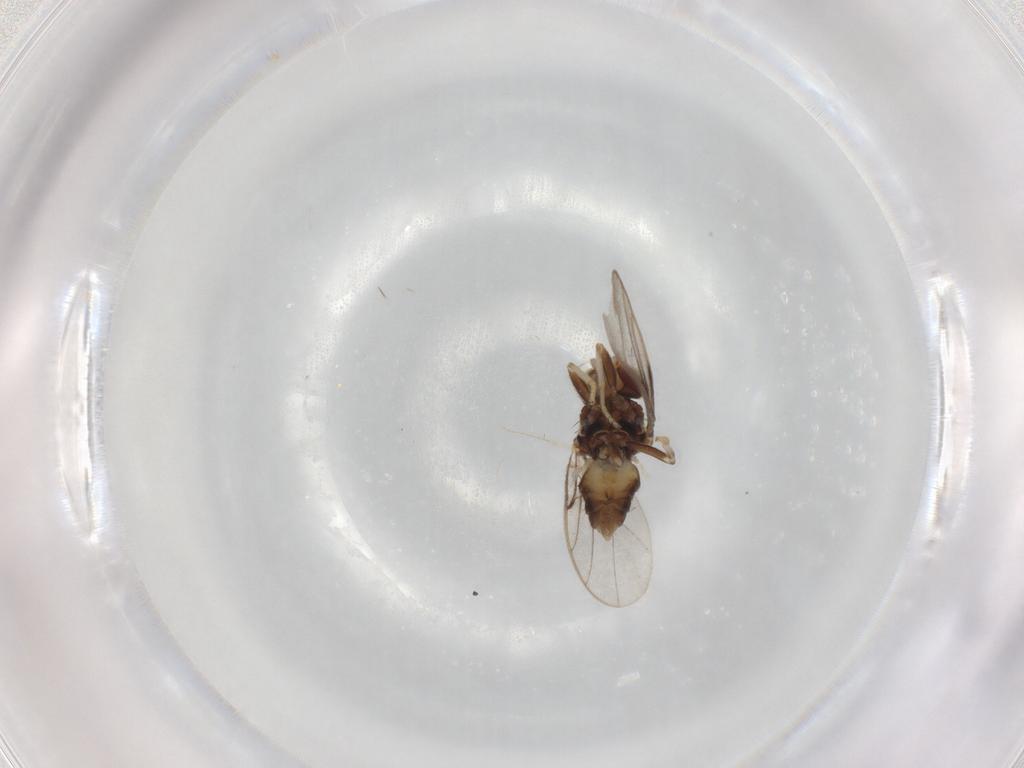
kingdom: Animalia
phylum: Arthropoda
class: Insecta
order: Diptera
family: Chloropidae
